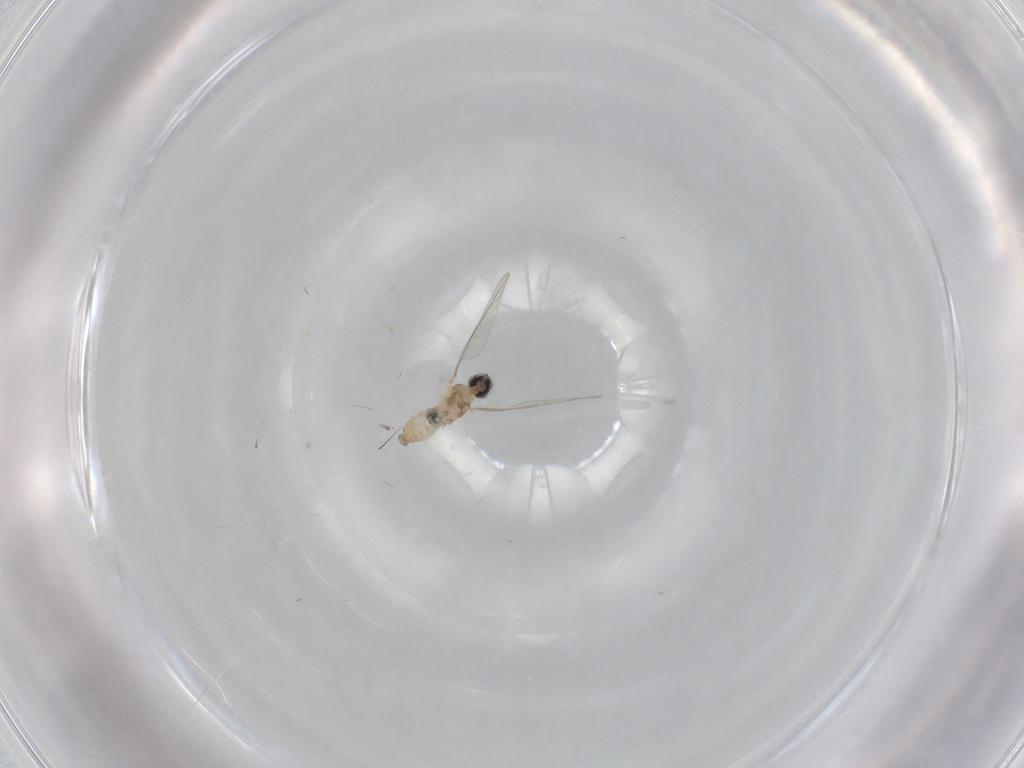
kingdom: Animalia
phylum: Arthropoda
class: Insecta
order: Diptera
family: Cecidomyiidae
